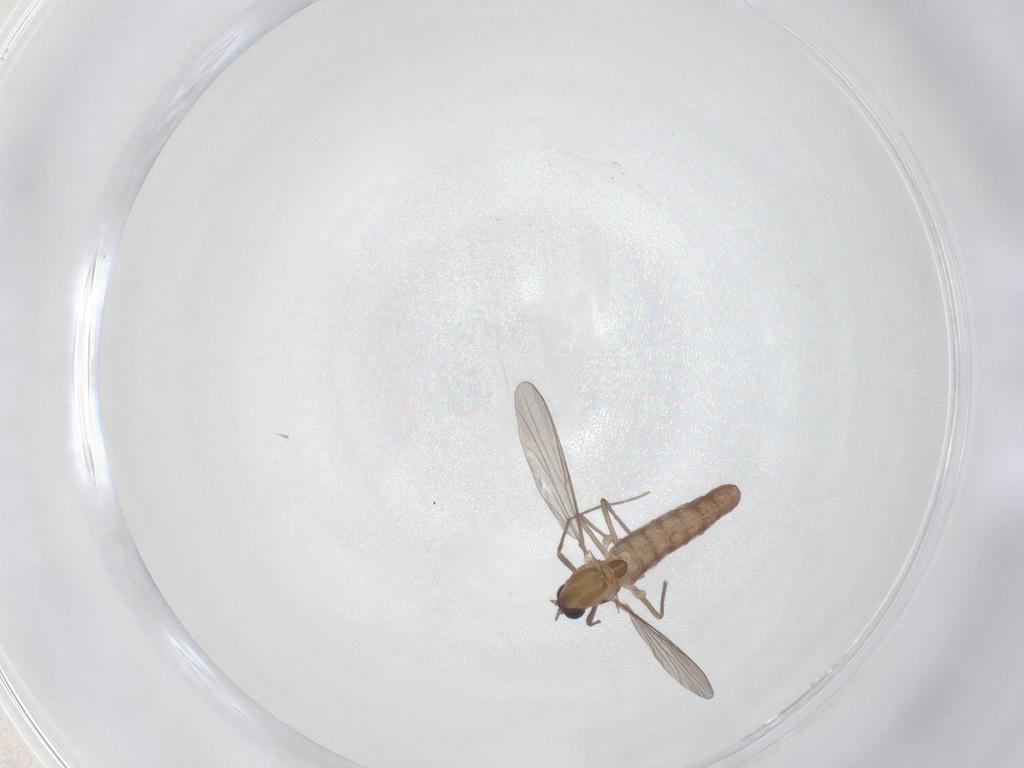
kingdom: Animalia
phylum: Arthropoda
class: Insecta
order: Diptera
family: Chironomidae
